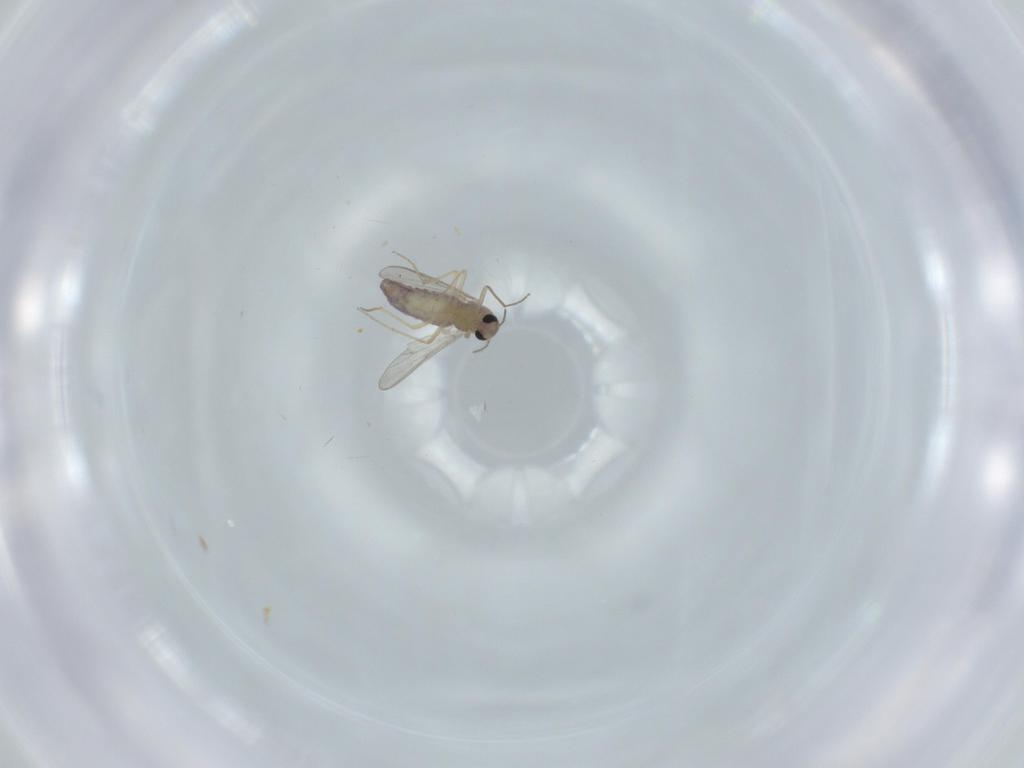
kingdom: Animalia
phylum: Arthropoda
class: Insecta
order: Diptera
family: Chironomidae
